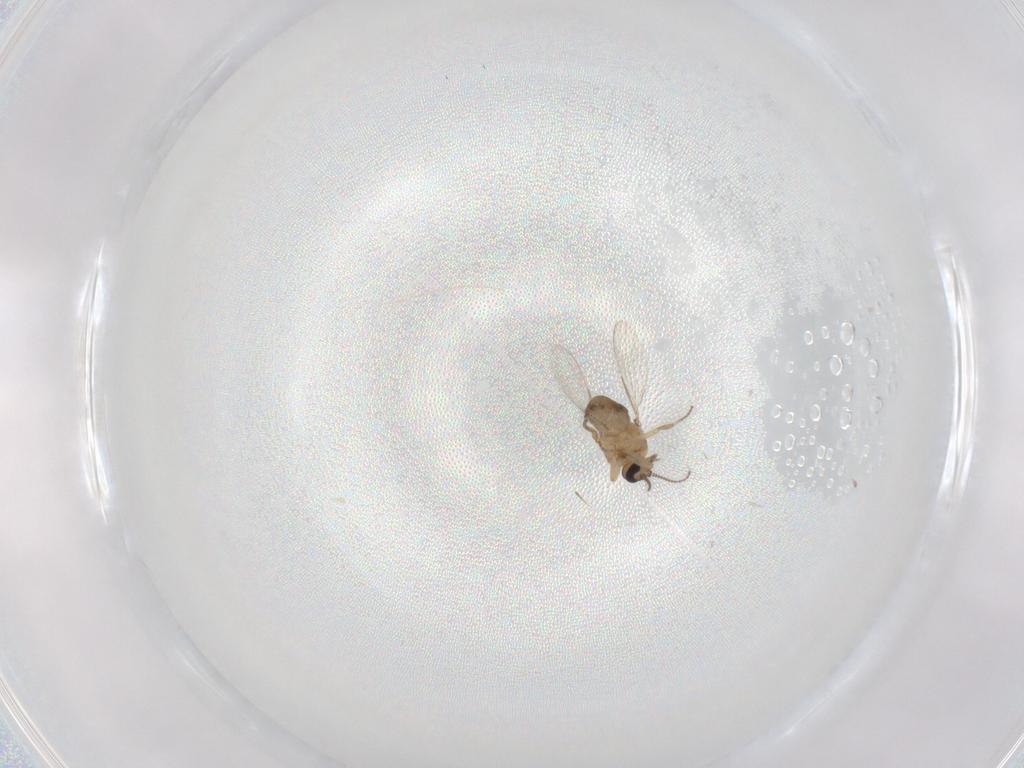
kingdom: Animalia
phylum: Arthropoda
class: Insecta
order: Diptera
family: Ceratopogonidae
